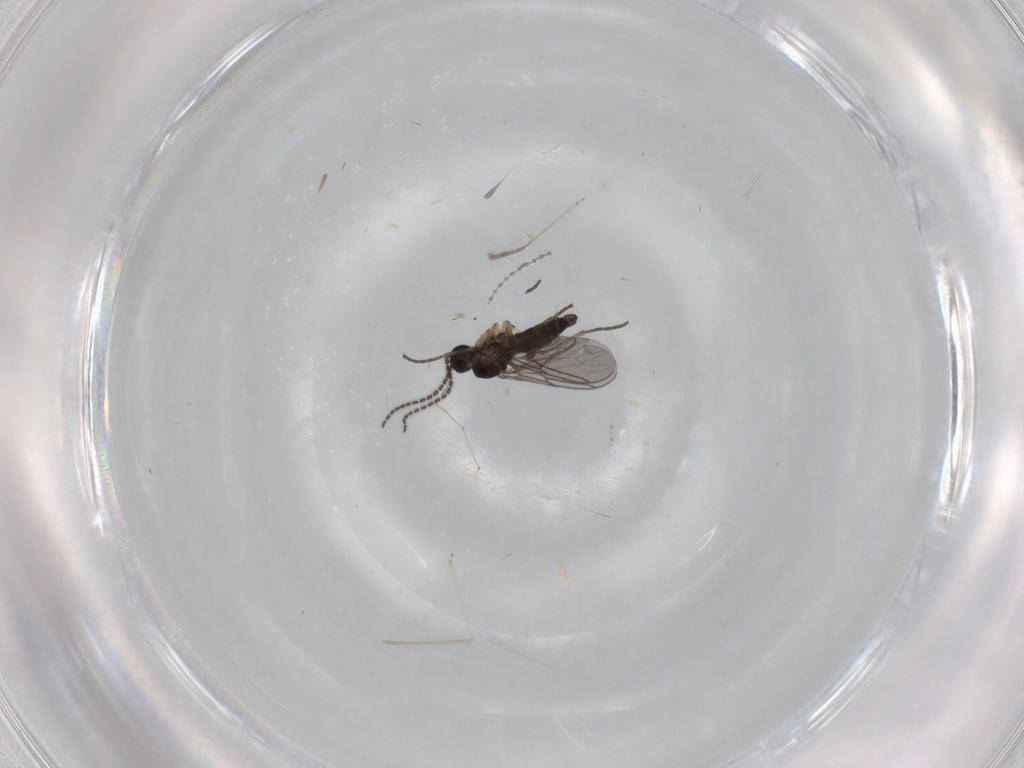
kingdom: Animalia
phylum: Arthropoda
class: Insecta
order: Diptera
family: Cecidomyiidae
